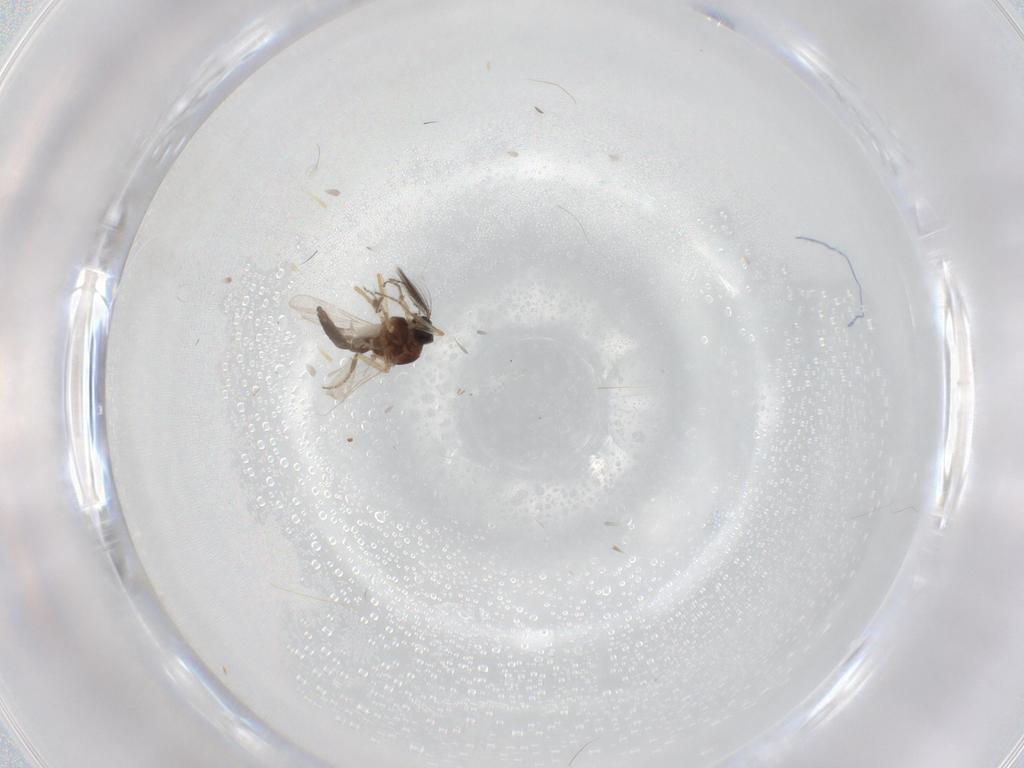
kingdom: Animalia
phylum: Arthropoda
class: Insecta
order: Diptera
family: Ceratopogonidae
